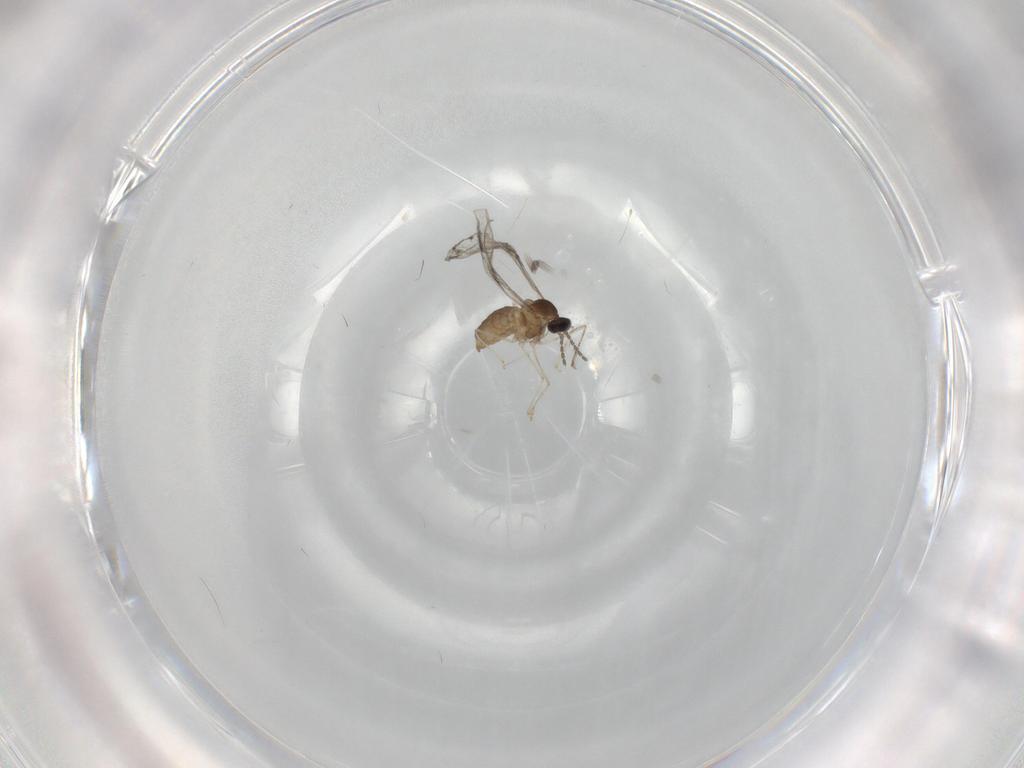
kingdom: Animalia
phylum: Arthropoda
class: Insecta
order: Diptera
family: Cecidomyiidae
